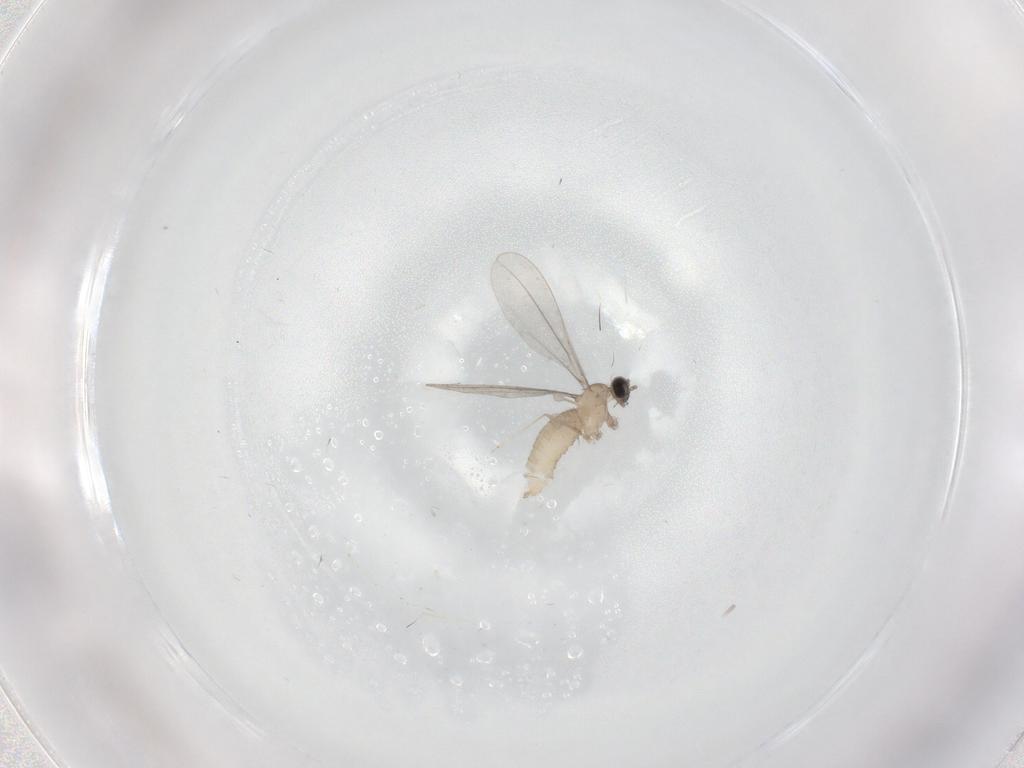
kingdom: Animalia
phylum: Arthropoda
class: Insecta
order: Diptera
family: Cecidomyiidae
